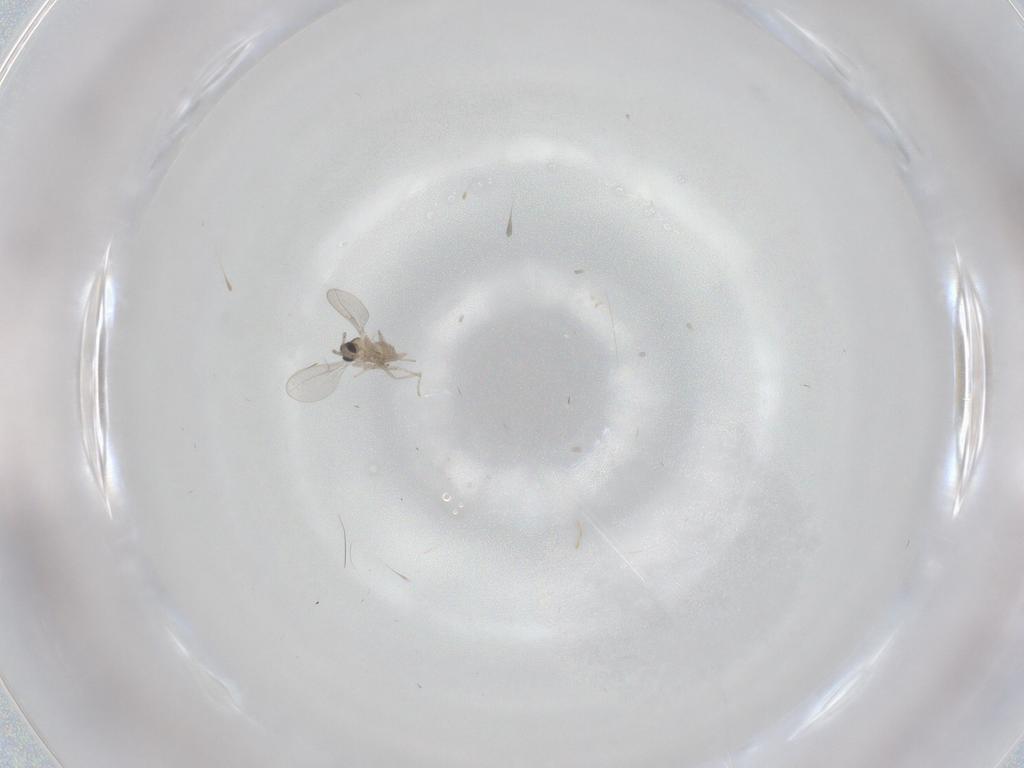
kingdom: Animalia
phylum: Arthropoda
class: Insecta
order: Diptera
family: Cecidomyiidae
